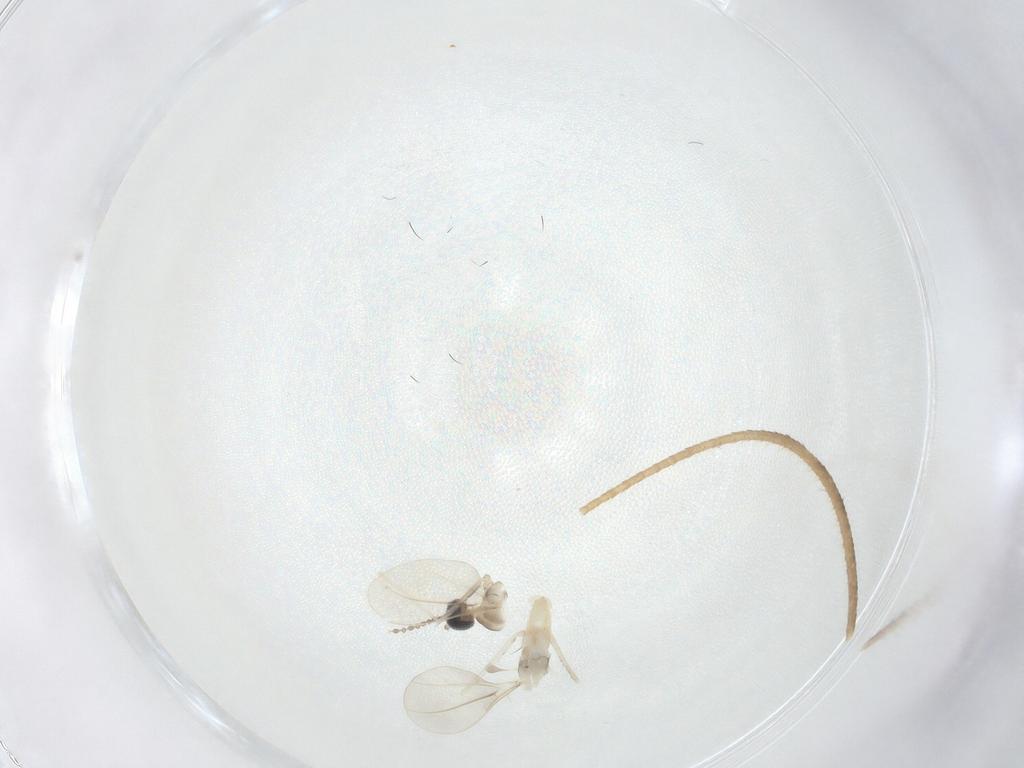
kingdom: Animalia
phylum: Arthropoda
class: Insecta
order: Diptera
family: Cecidomyiidae
